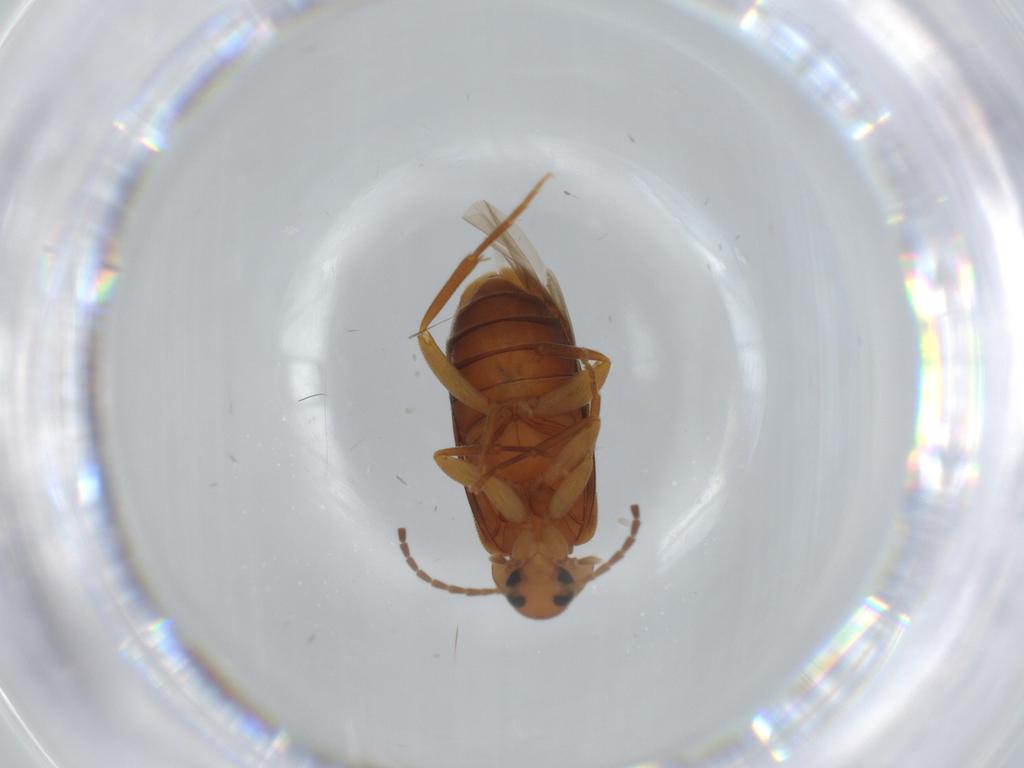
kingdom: Animalia
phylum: Arthropoda
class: Insecta
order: Coleoptera
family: Scraptiidae
